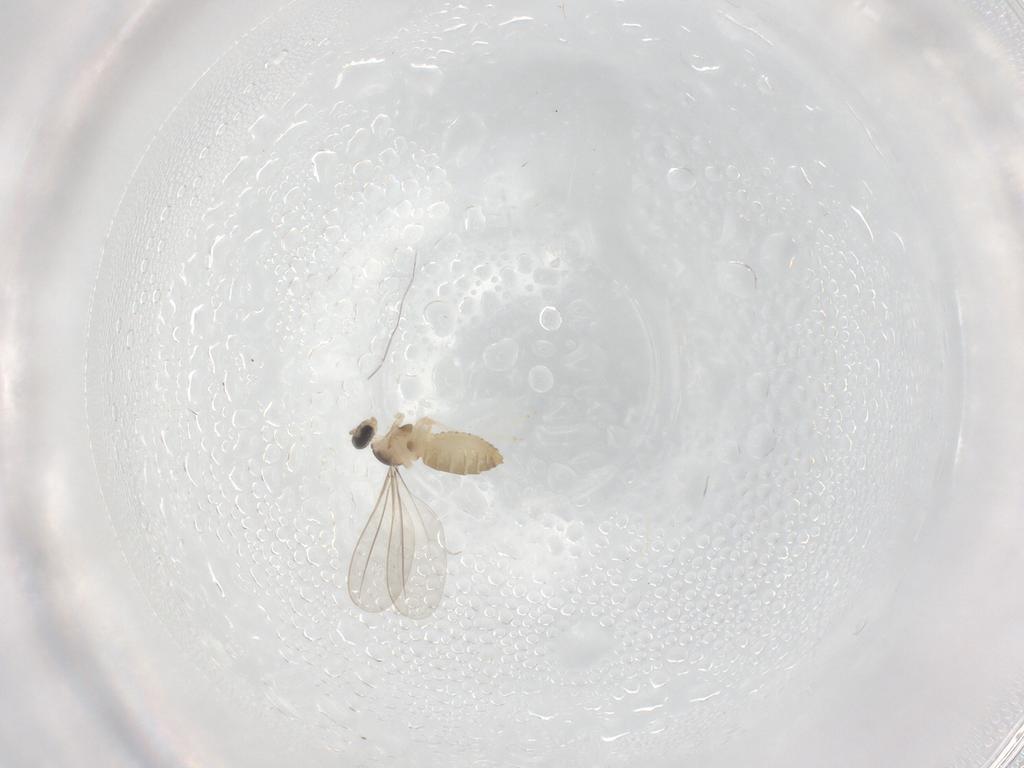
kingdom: Animalia
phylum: Arthropoda
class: Insecta
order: Diptera
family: Cecidomyiidae
